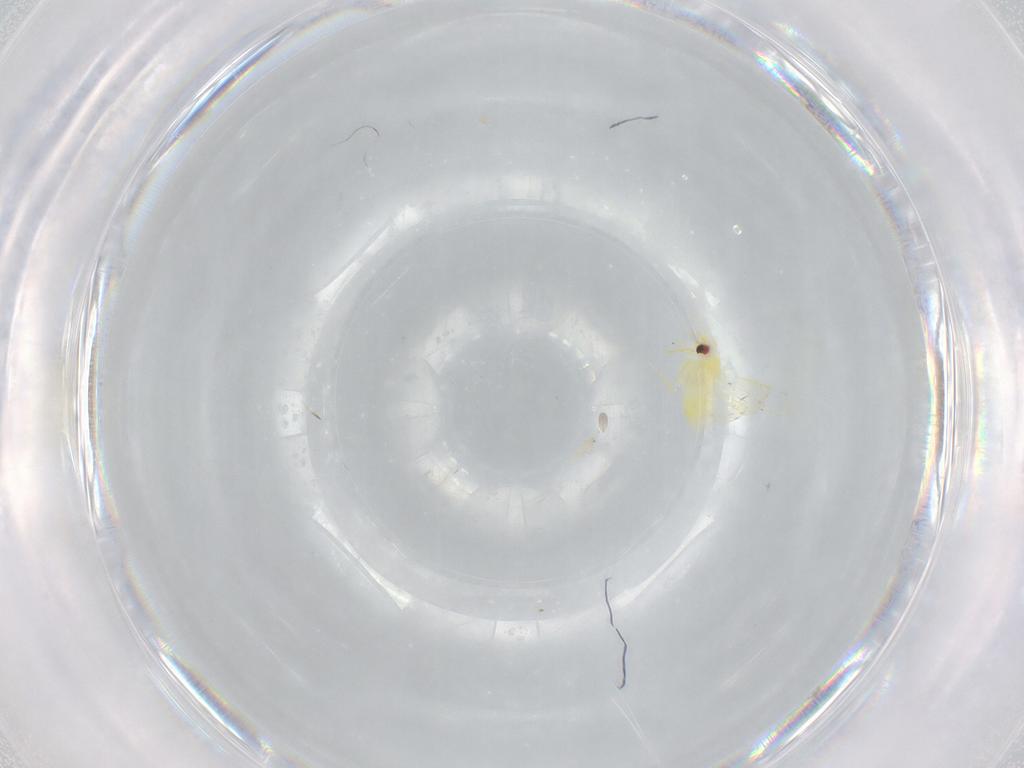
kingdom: Animalia
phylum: Arthropoda
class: Insecta
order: Hemiptera
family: Aleyrodidae
